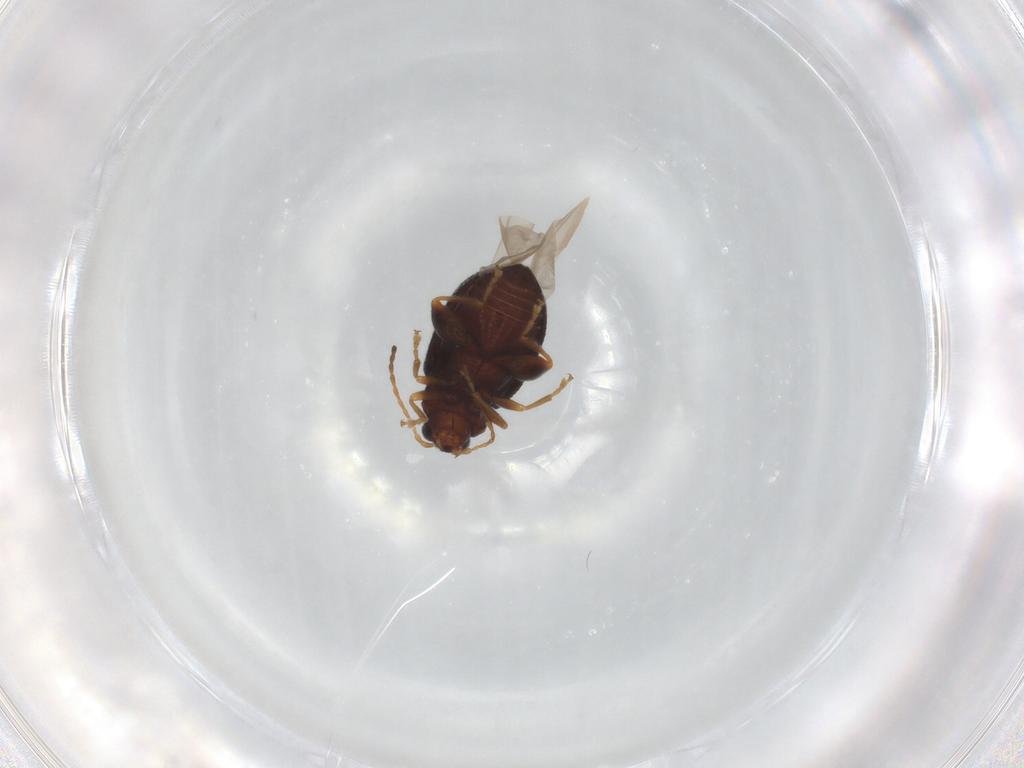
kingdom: Animalia
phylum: Arthropoda
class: Insecta
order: Coleoptera
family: Chrysomelidae
